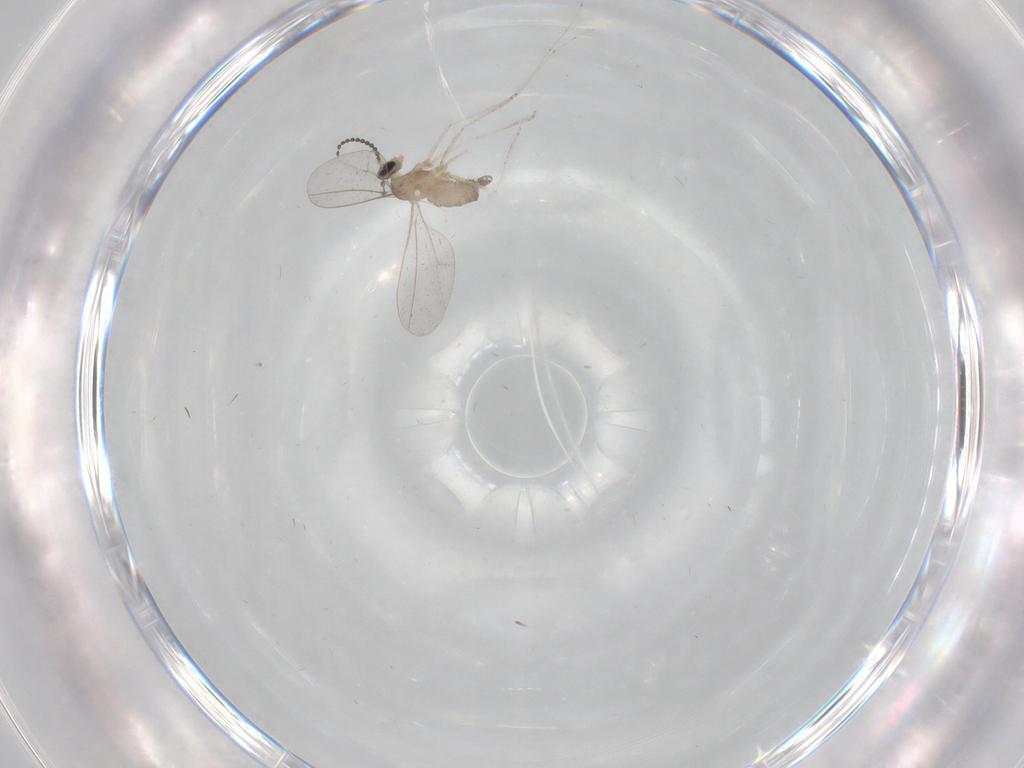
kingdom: Animalia
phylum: Arthropoda
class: Insecta
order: Diptera
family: Chironomidae
